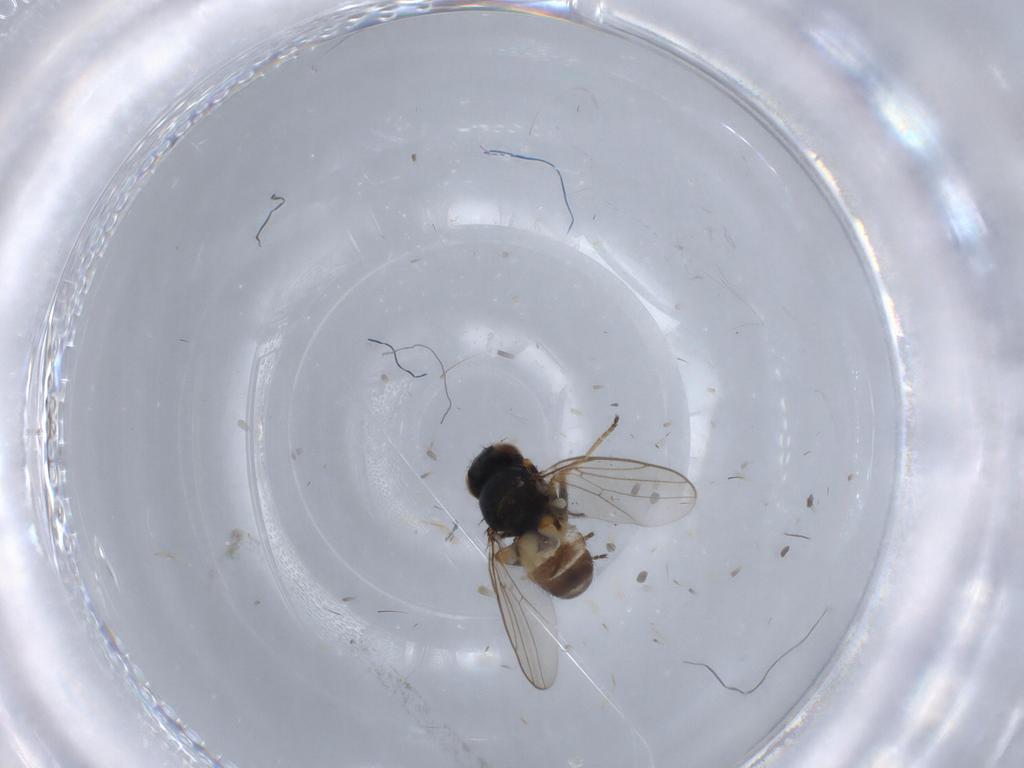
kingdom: Animalia
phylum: Arthropoda
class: Insecta
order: Diptera
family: Chloropidae
